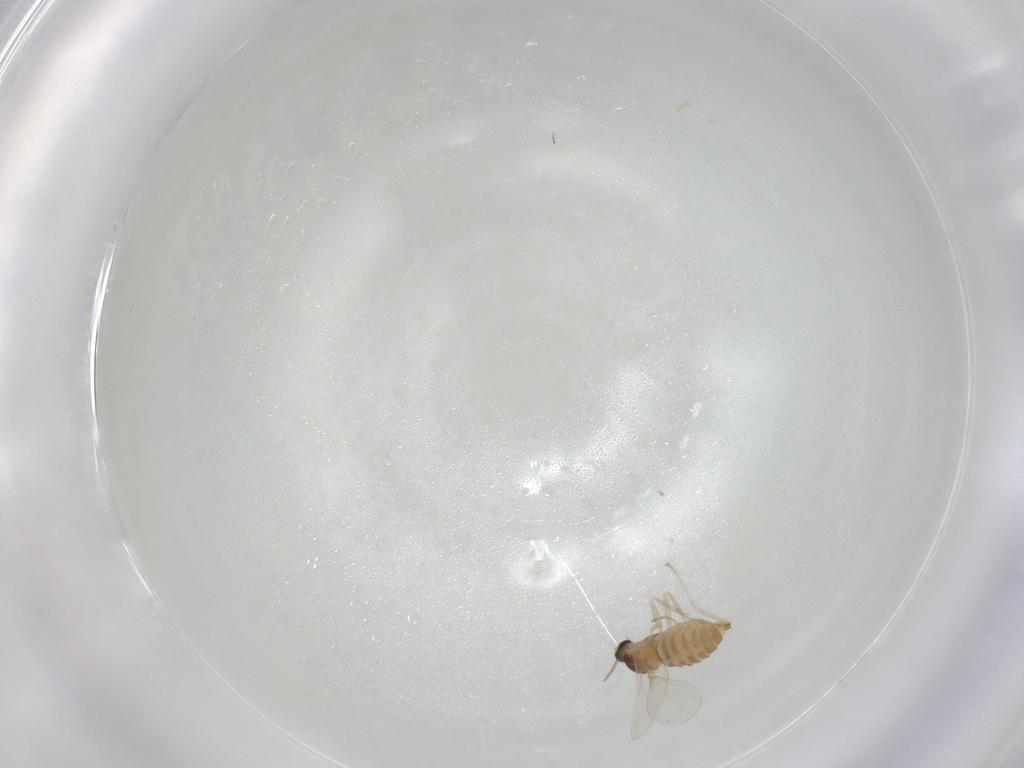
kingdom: Animalia
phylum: Arthropoda
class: Insecta
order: Diptera
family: Cecidomyiidae
